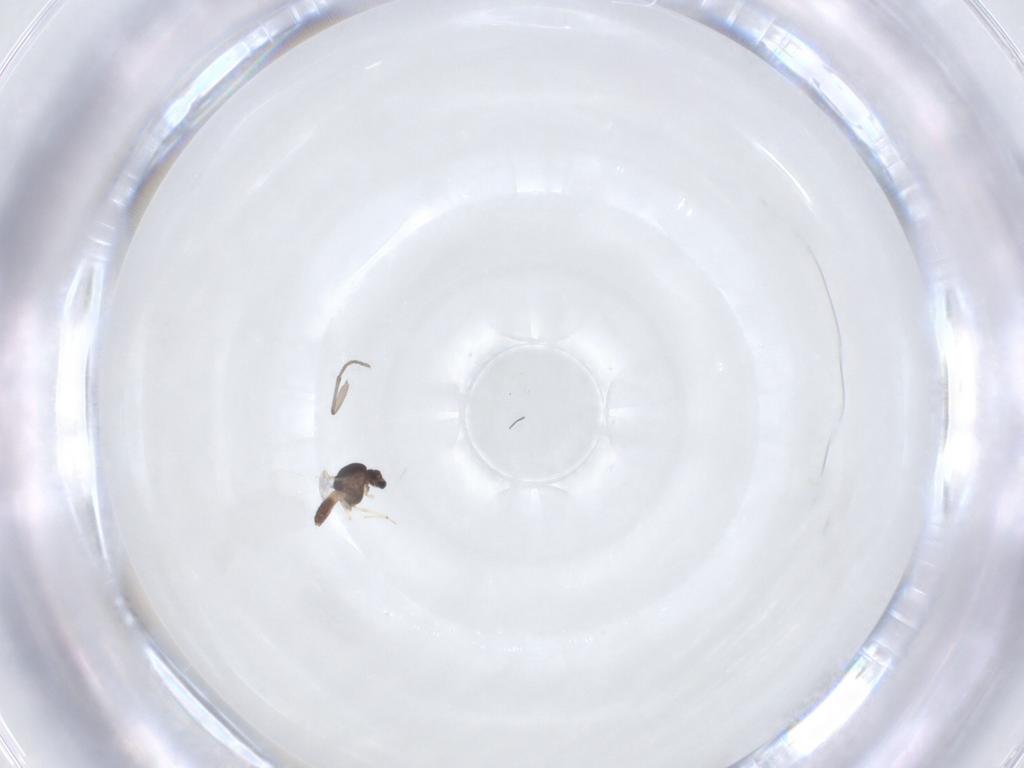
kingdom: Animalia
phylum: Arthropoda
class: Insecta
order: Diptera
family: Chironomidae
